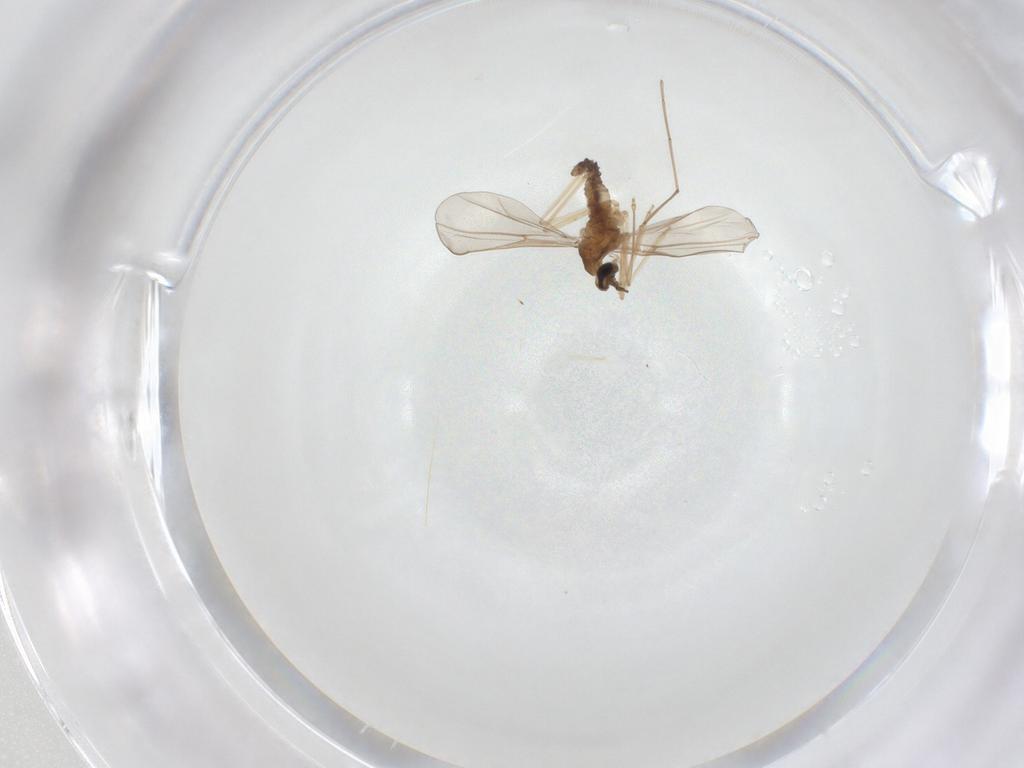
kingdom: Animalia
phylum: Arthropoda
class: Insecta
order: Diptera
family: Cecidomyiidae
